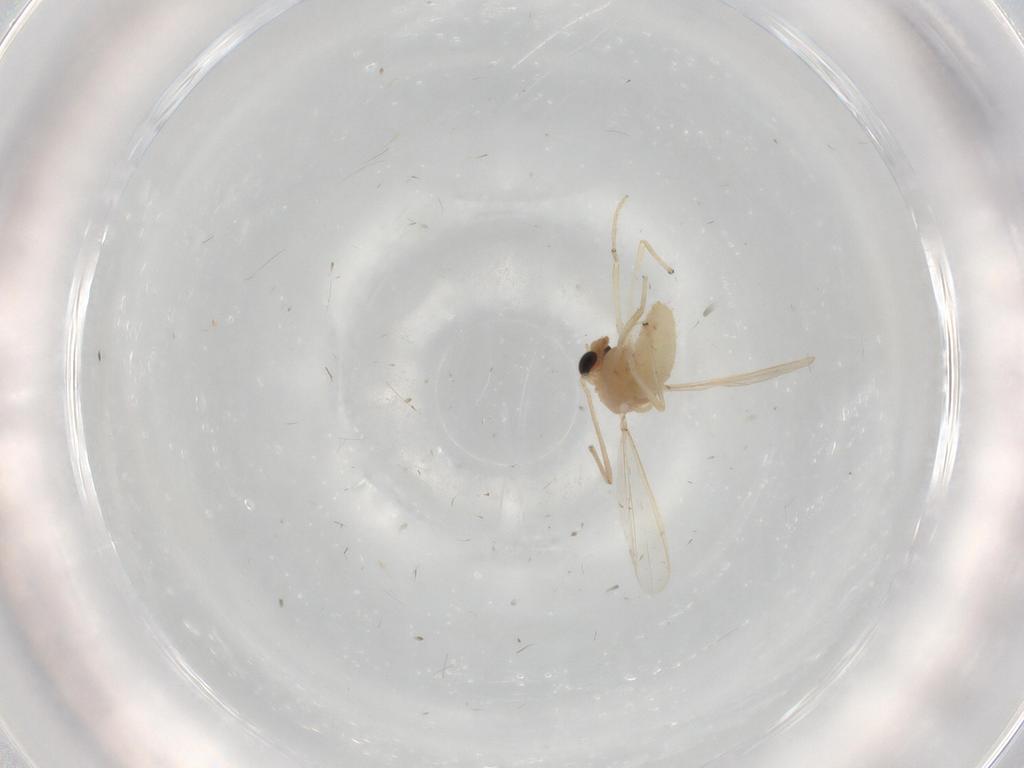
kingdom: Animalia
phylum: Arthropoda
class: Insecta
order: Diptera
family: Cecidomyiidae
